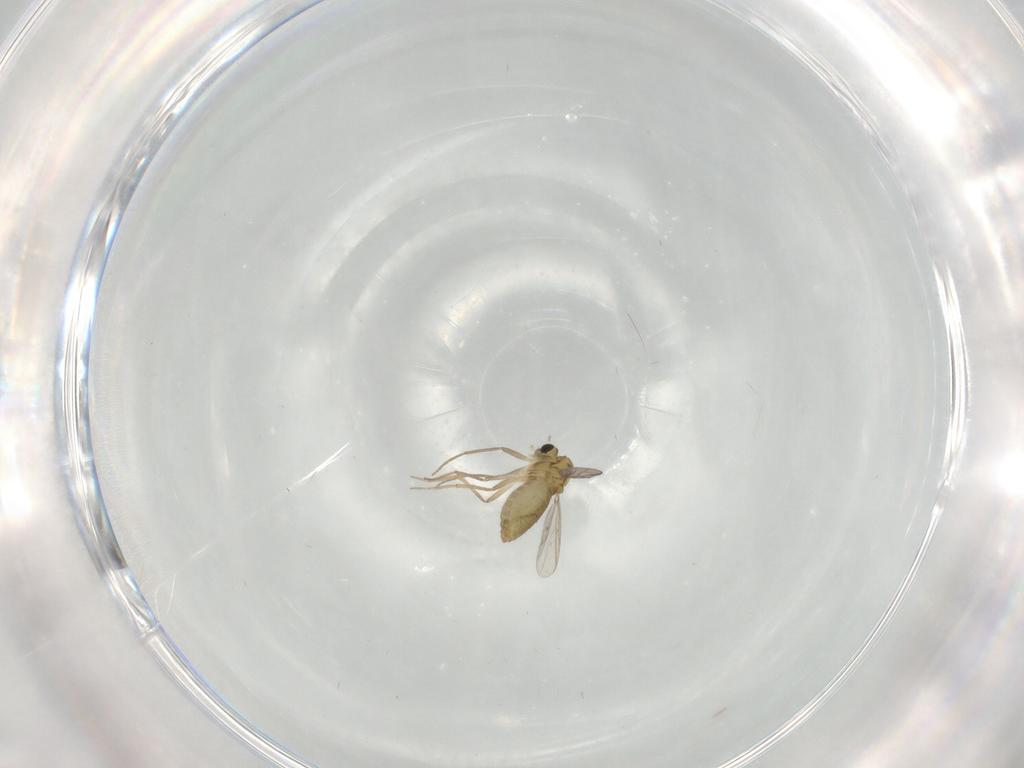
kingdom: Animalia
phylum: Arthropoda
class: Insecta
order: Diptera
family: Chironomidae
